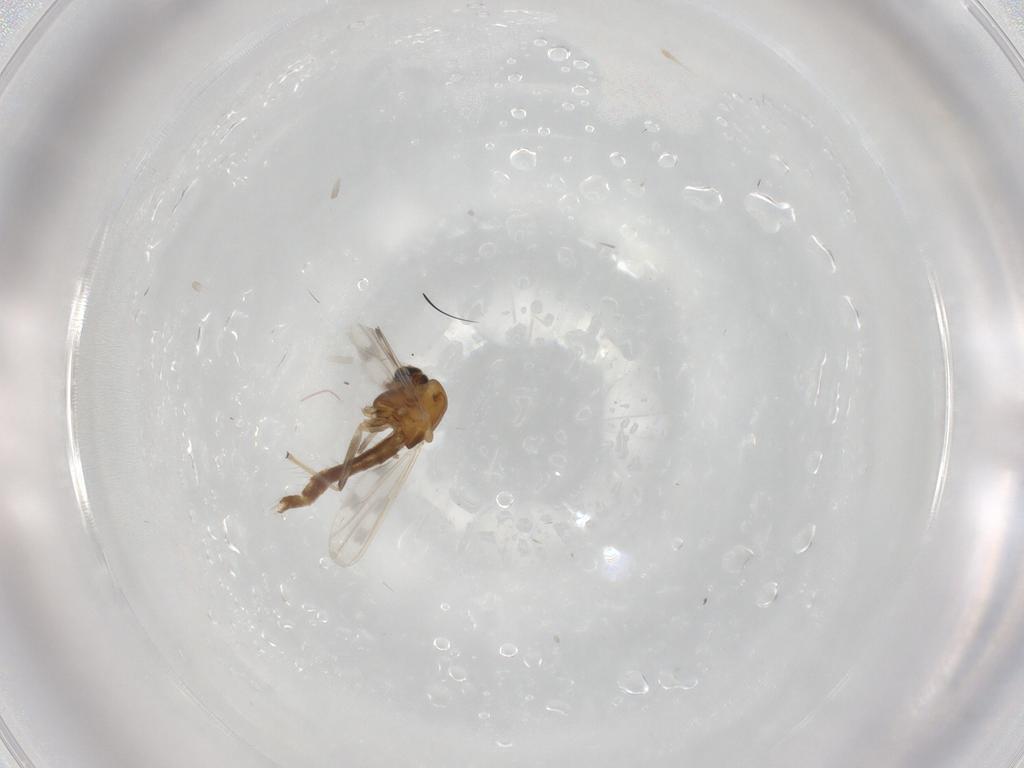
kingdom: Animalia
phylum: Arthropoda
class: Insecta
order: Diptera
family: Chironomidae
